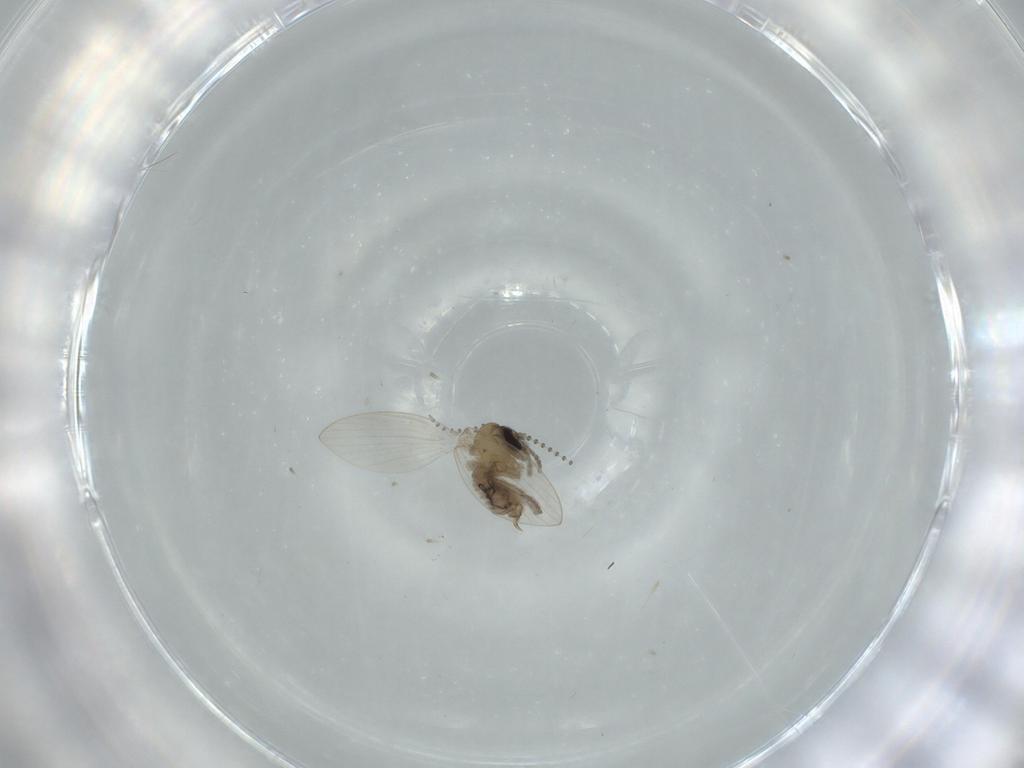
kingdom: Animalia
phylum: Arthropoda
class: Insecta
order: Diptera
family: Psychodidae
